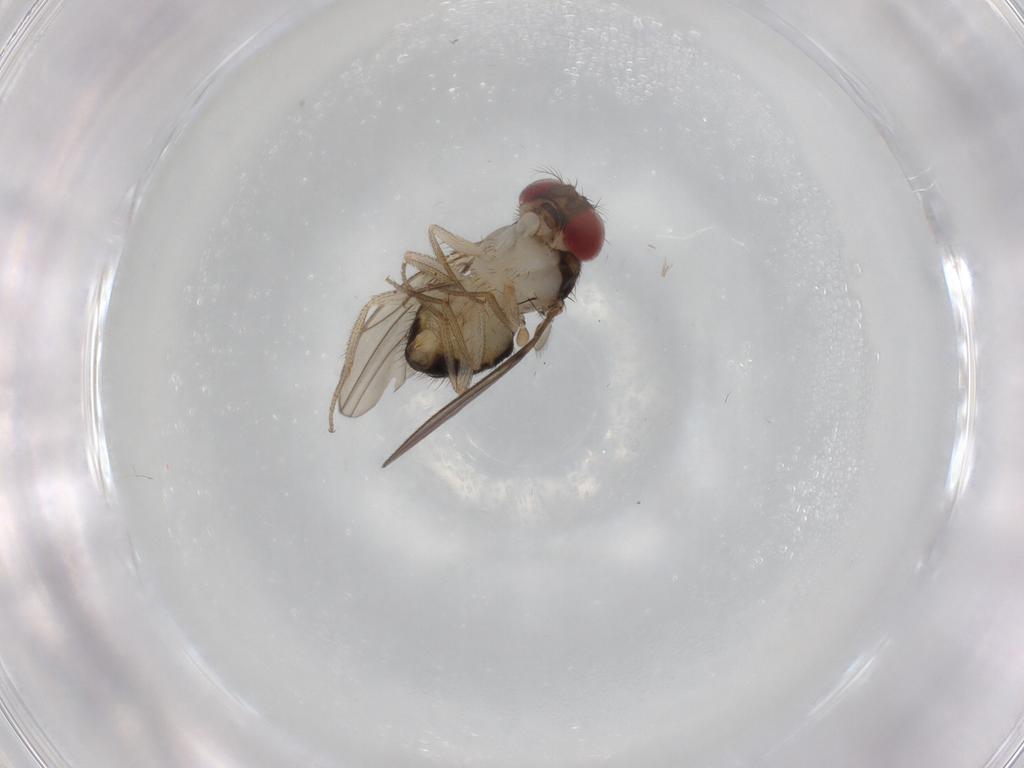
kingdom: Animalia
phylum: Arthropoda
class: Insecta
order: Diptera
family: Drosophilidae
